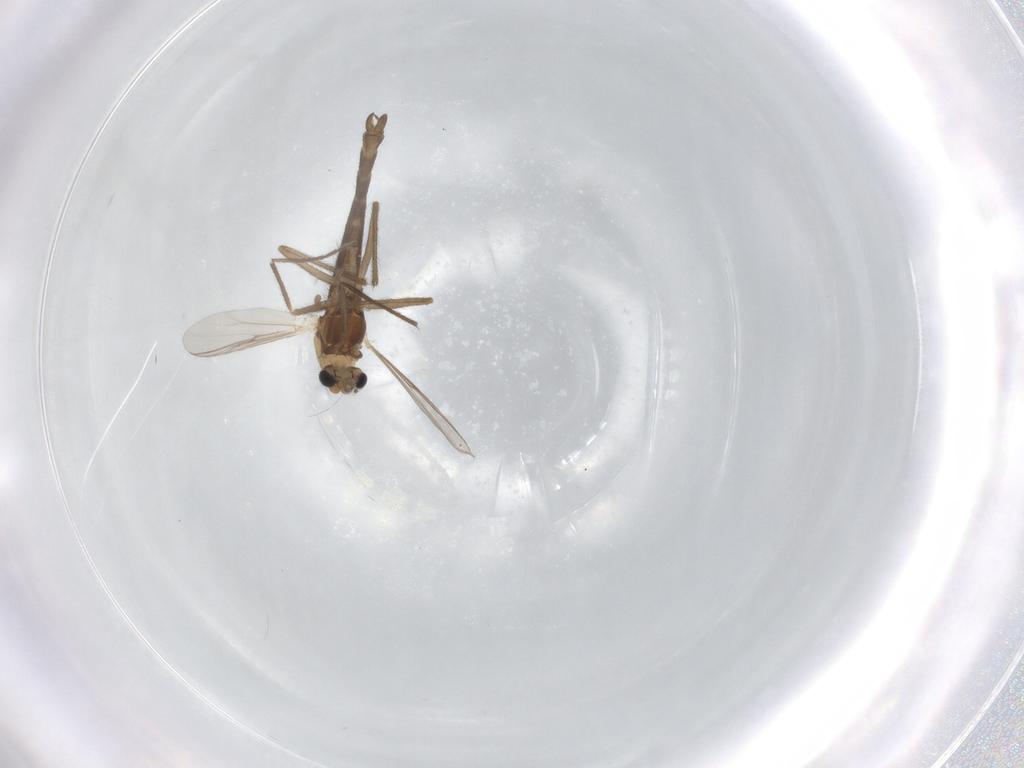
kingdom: Animalia
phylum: Arthropoda
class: Insecta
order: Diptera
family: Chironomidae
